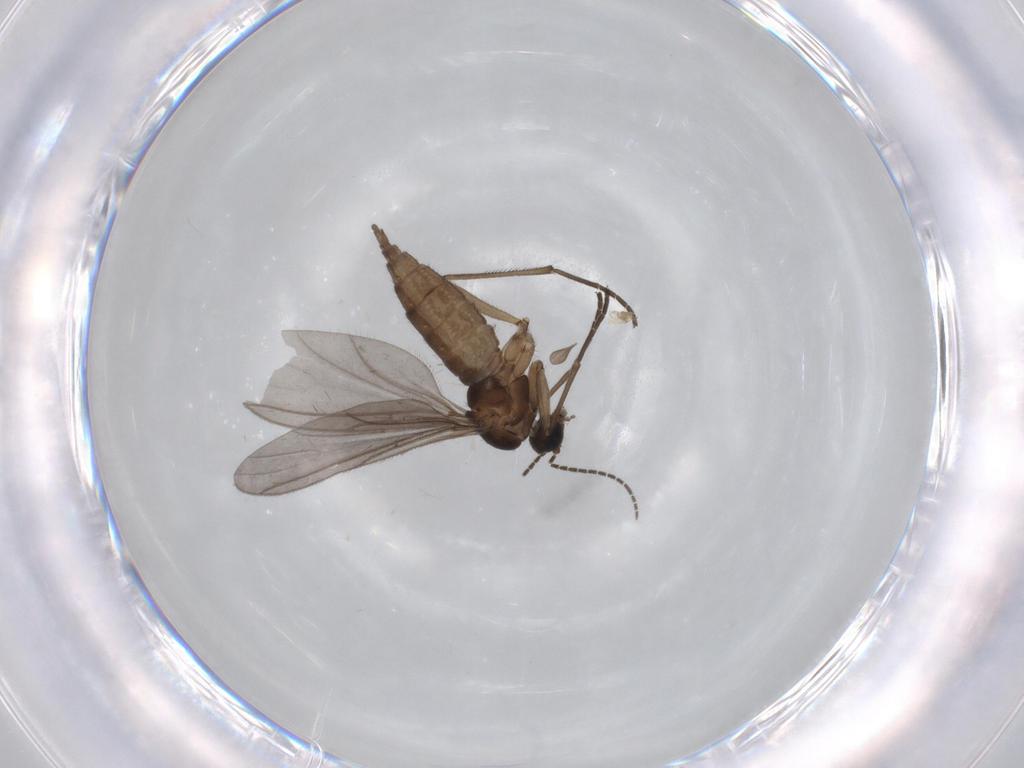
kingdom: Animalia
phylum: Arthropoda
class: Insecta
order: Diptera
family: Sciaridae
